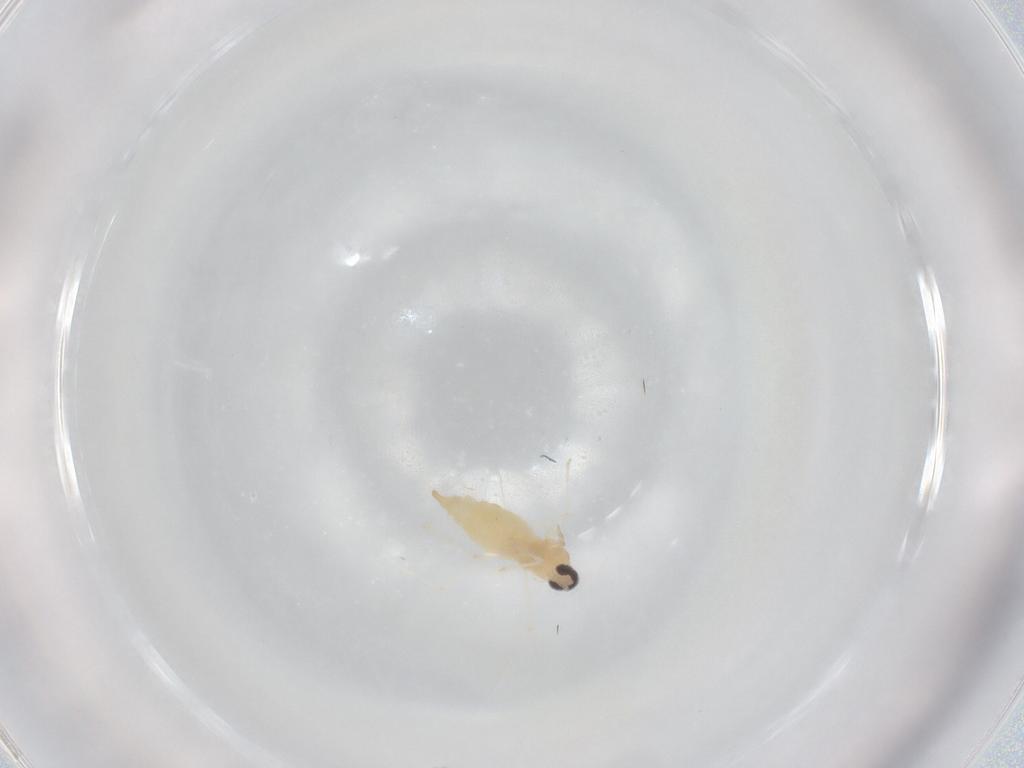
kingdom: Animalia
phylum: Arthropoda
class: Insecta
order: Diptera
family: Cecidomyiidae
